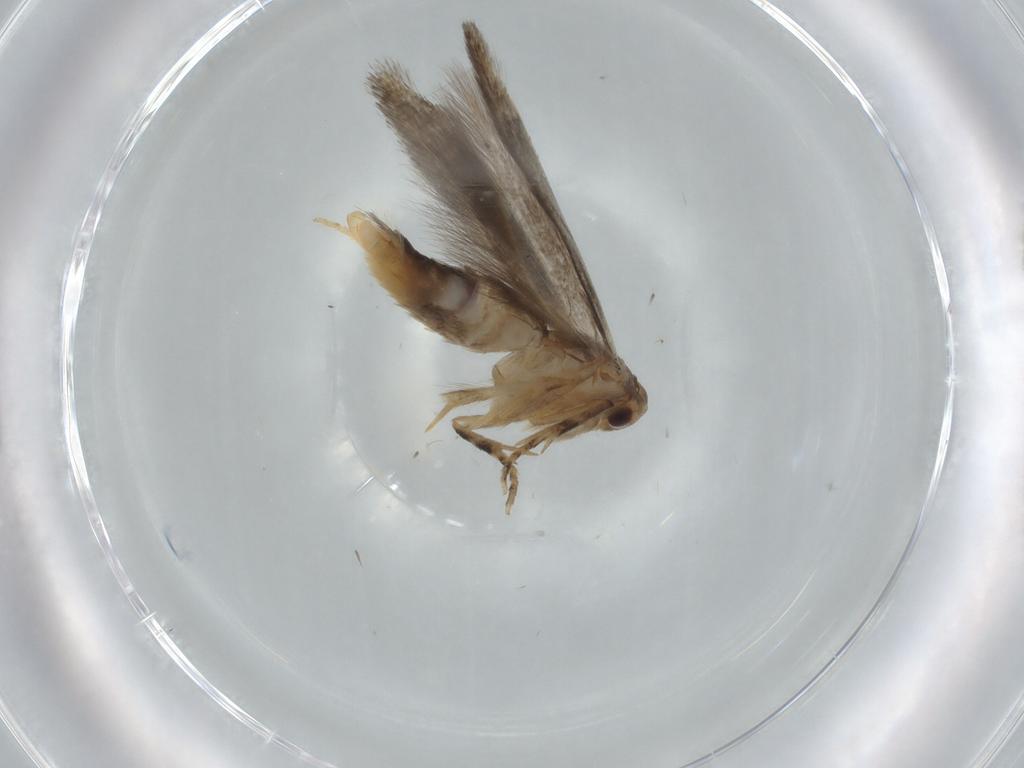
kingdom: Animalia
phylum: Arthropoda
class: Insecta
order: Lepidoptera
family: Elachistidae
